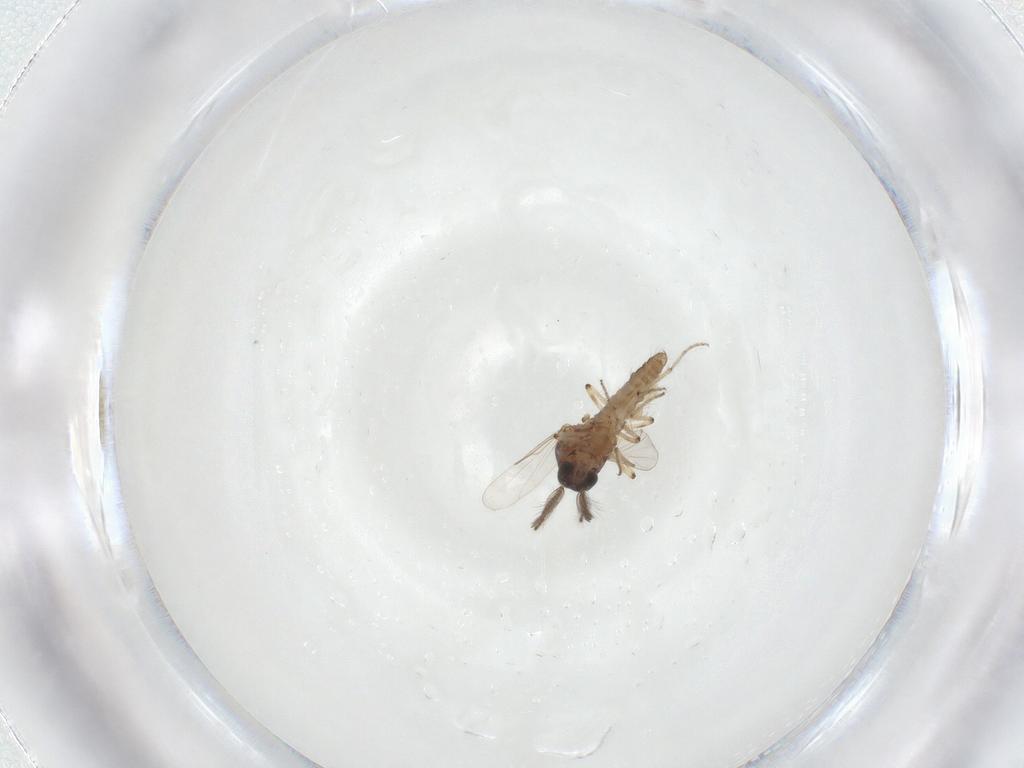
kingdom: Animalia
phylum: Arthropoda
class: Insecta
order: Diptera
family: Ceratopogonidae
